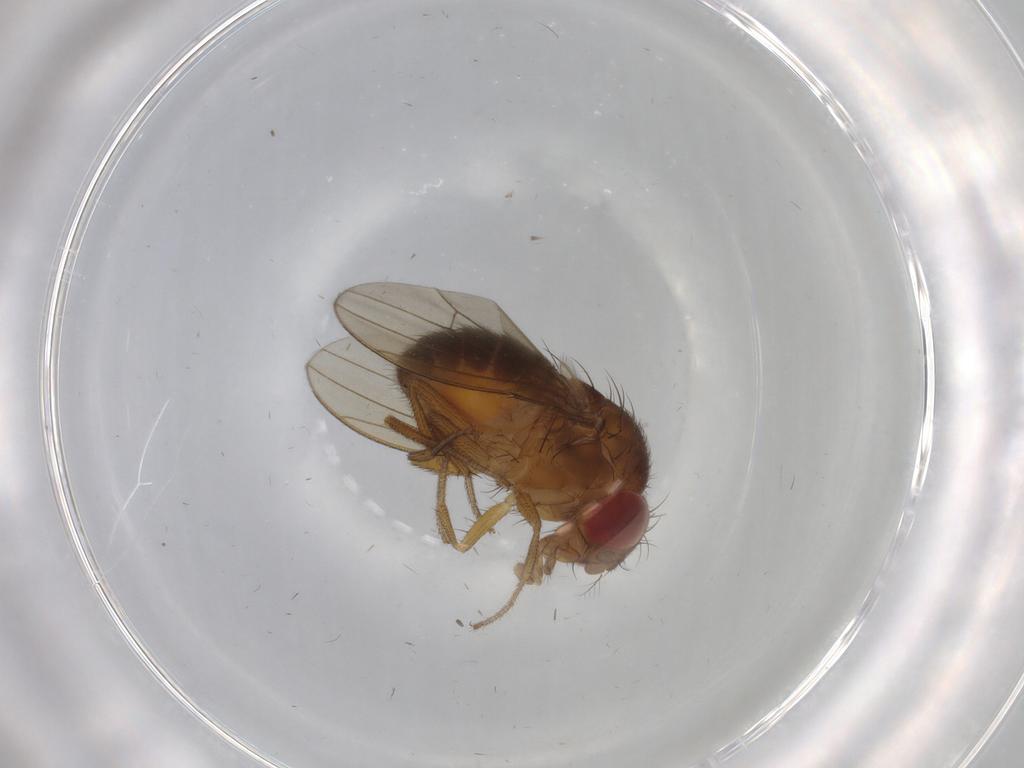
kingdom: Animalia
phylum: Arthropoda
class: Insecta
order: Diptera
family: Drosophilidae
